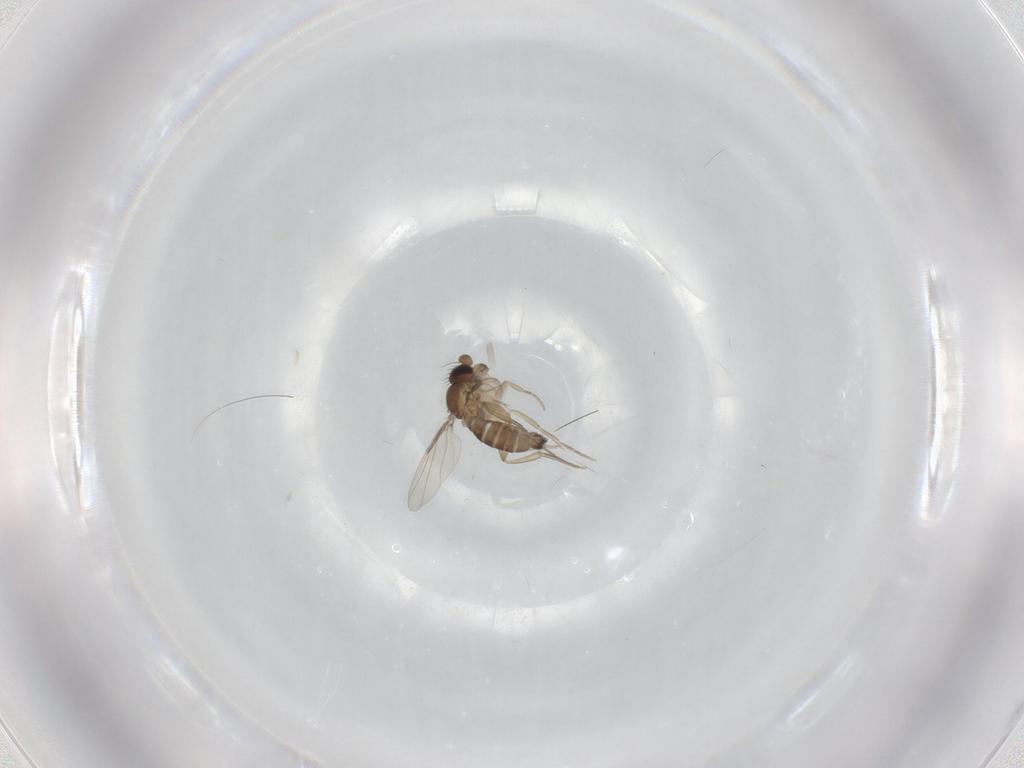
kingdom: Animalia
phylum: Arthropoda
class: Insecta
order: Diptera
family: Phoridae
